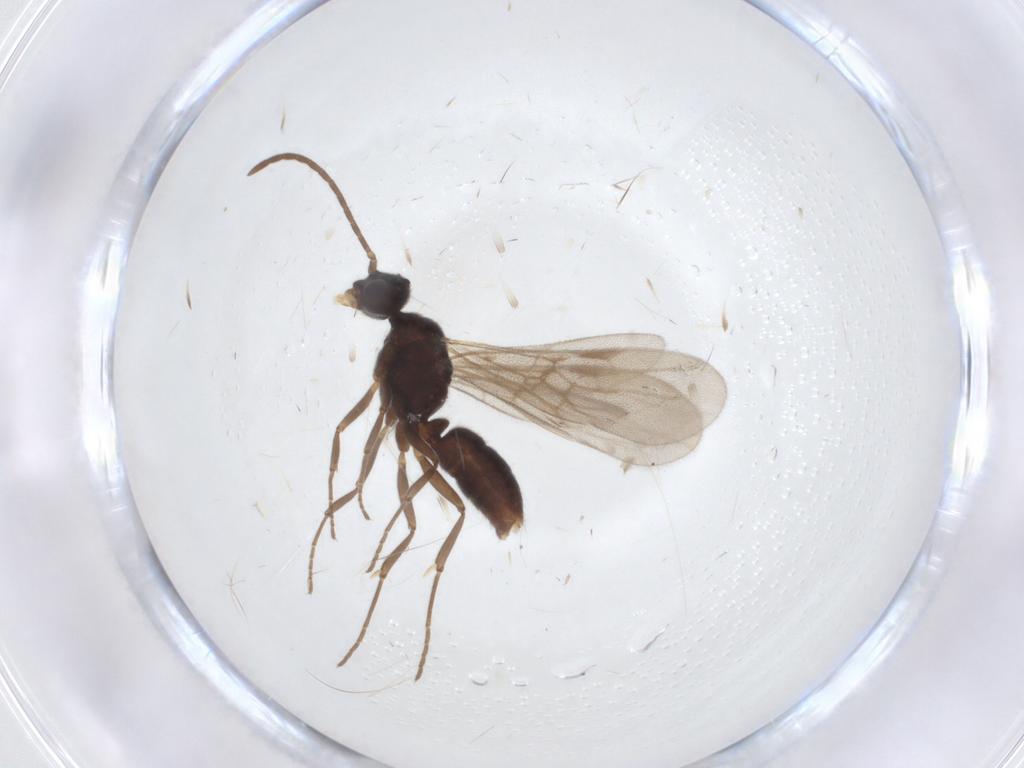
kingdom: Animalia
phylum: Arthropoda
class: Insecta
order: Hymenoptera
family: Formicidae
